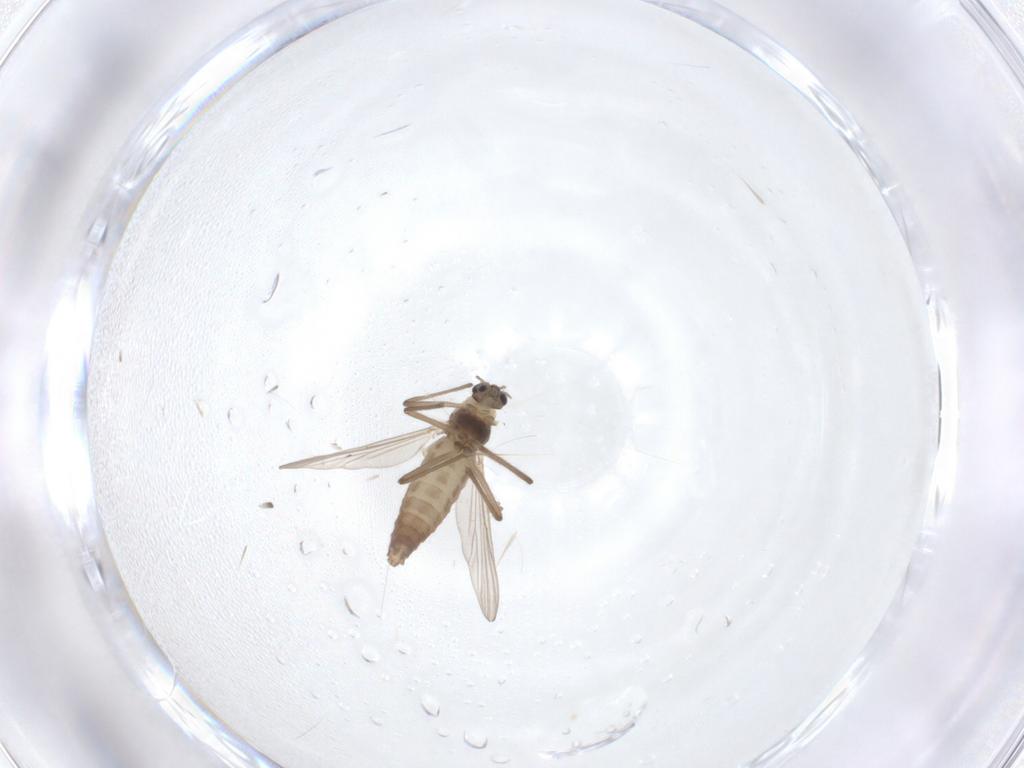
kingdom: Animalia
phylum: Arthropoda
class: Insecta
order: Diptera
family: Chironomidae
